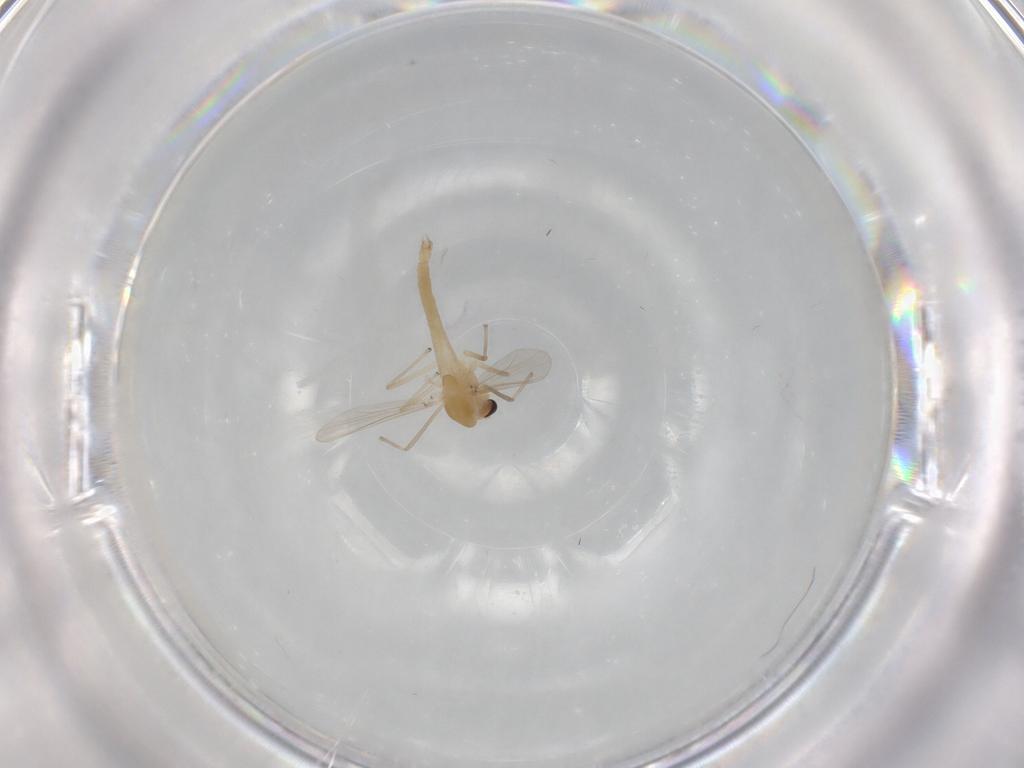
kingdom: Animalia
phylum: Arthropoda
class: Insecta
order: Diptera
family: Chironomidae
